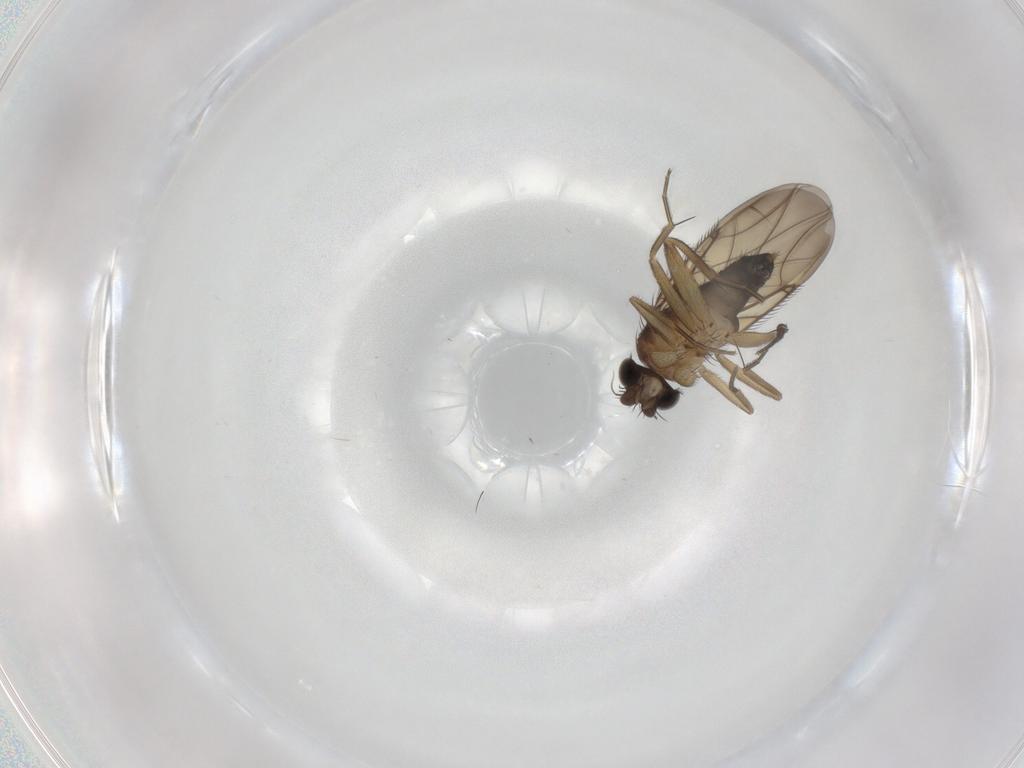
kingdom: Animalia
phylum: Arthropoda
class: Insecta
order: Diptera
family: Phoridae
